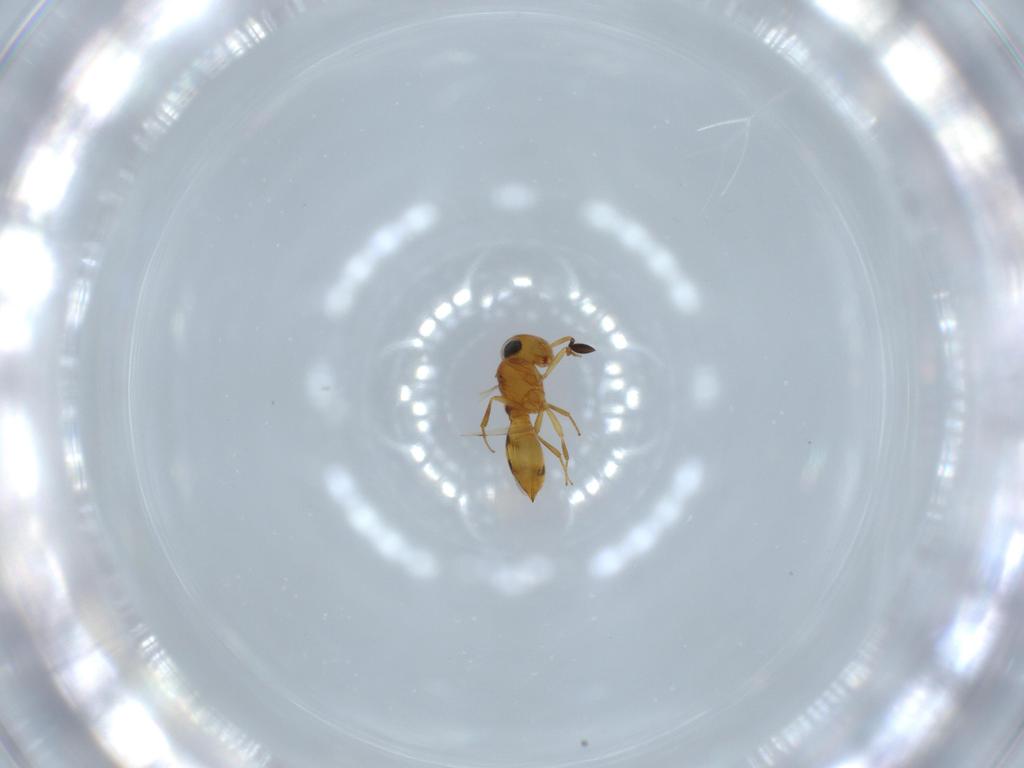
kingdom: Animalia
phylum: Arthropoda
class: Insecta
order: Hymenoptera
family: Scelionidae
